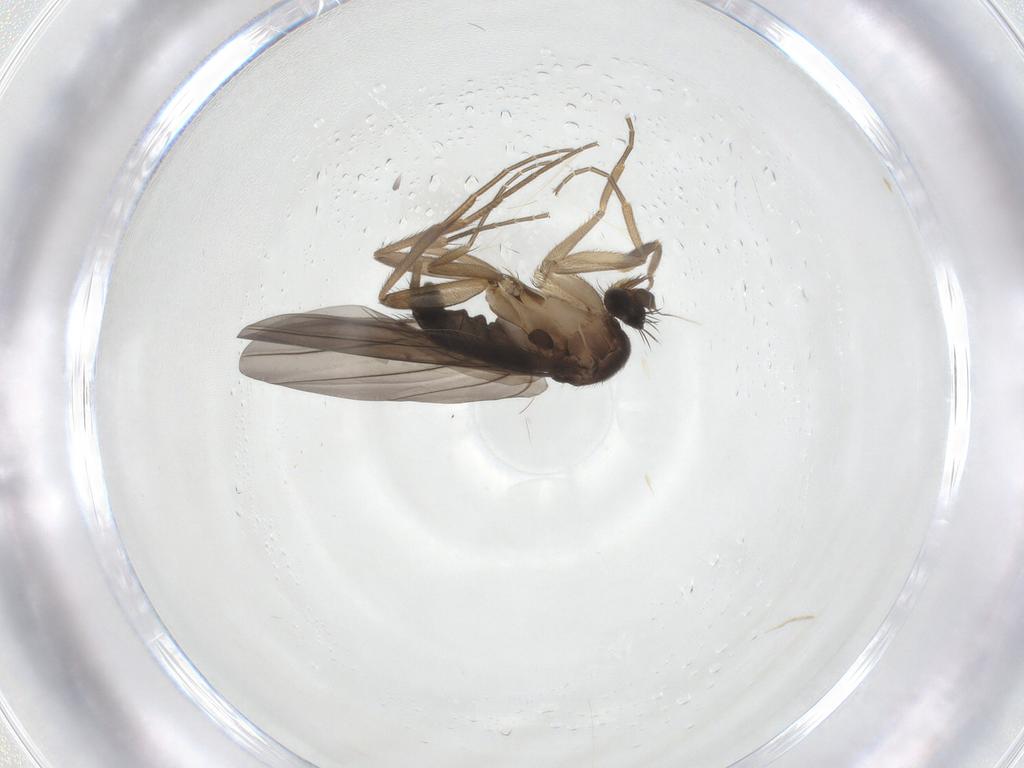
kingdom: Animalia
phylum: Arthropoda
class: Insecta
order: Diptera
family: Phoridae
